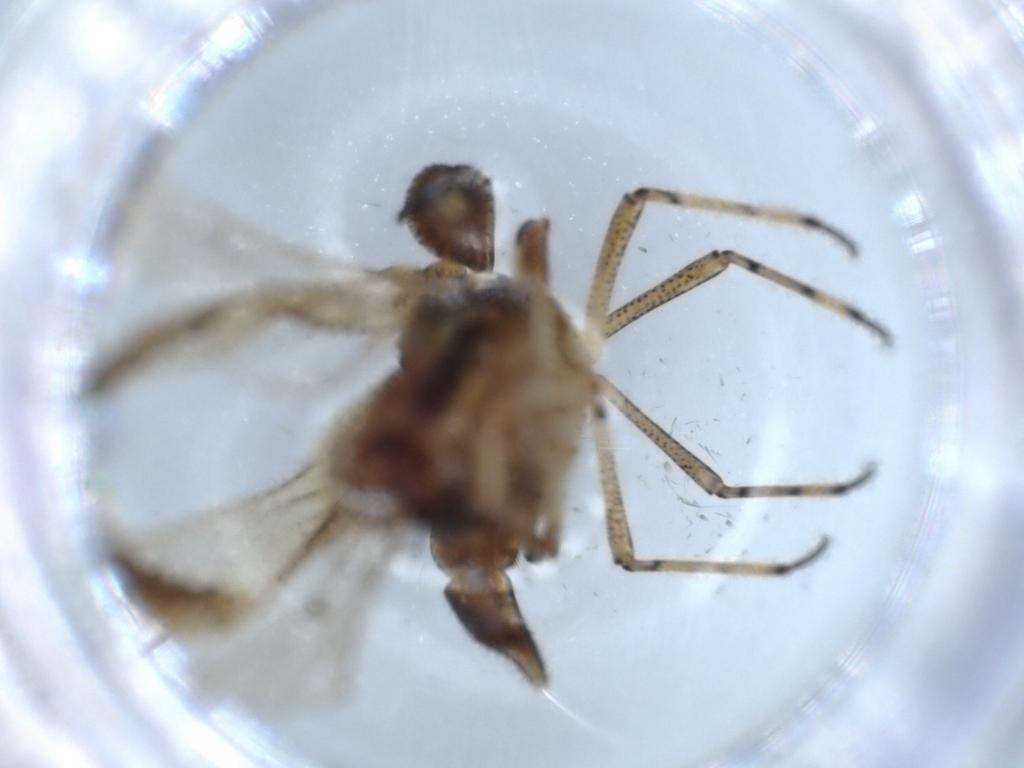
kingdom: Animalia
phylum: Arthropoda
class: Insecta
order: Hemiptera
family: Delphacidae
